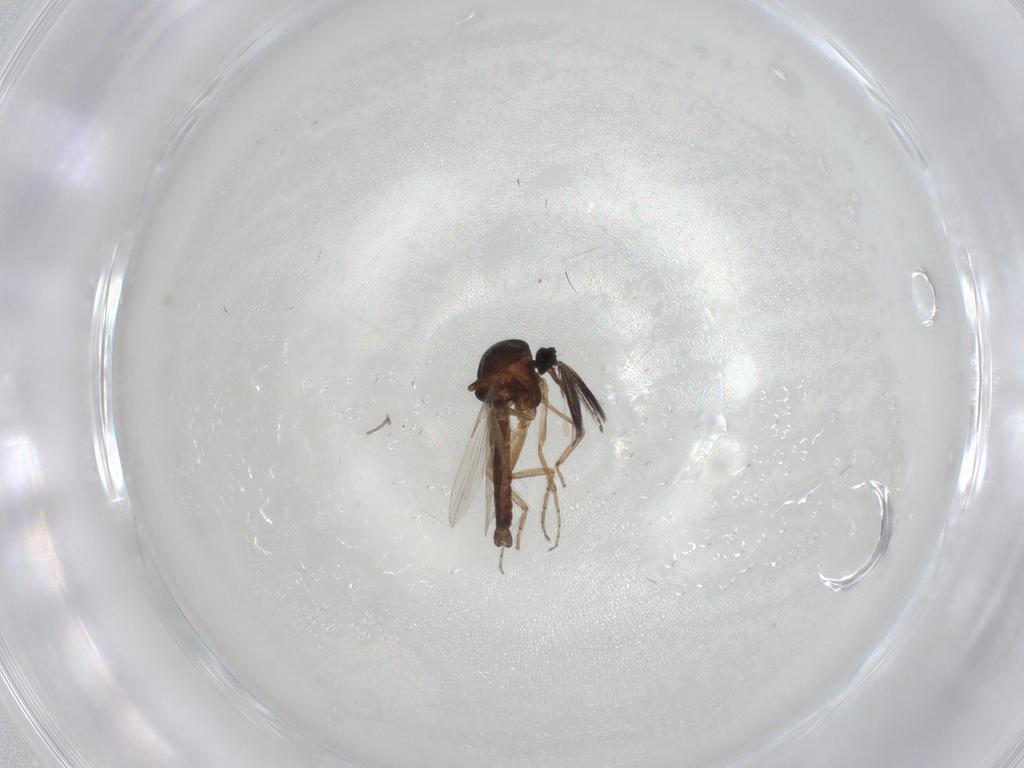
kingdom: Animalia
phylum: Arthropoda
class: Insecta
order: Diptera
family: Ceratopogonidae
